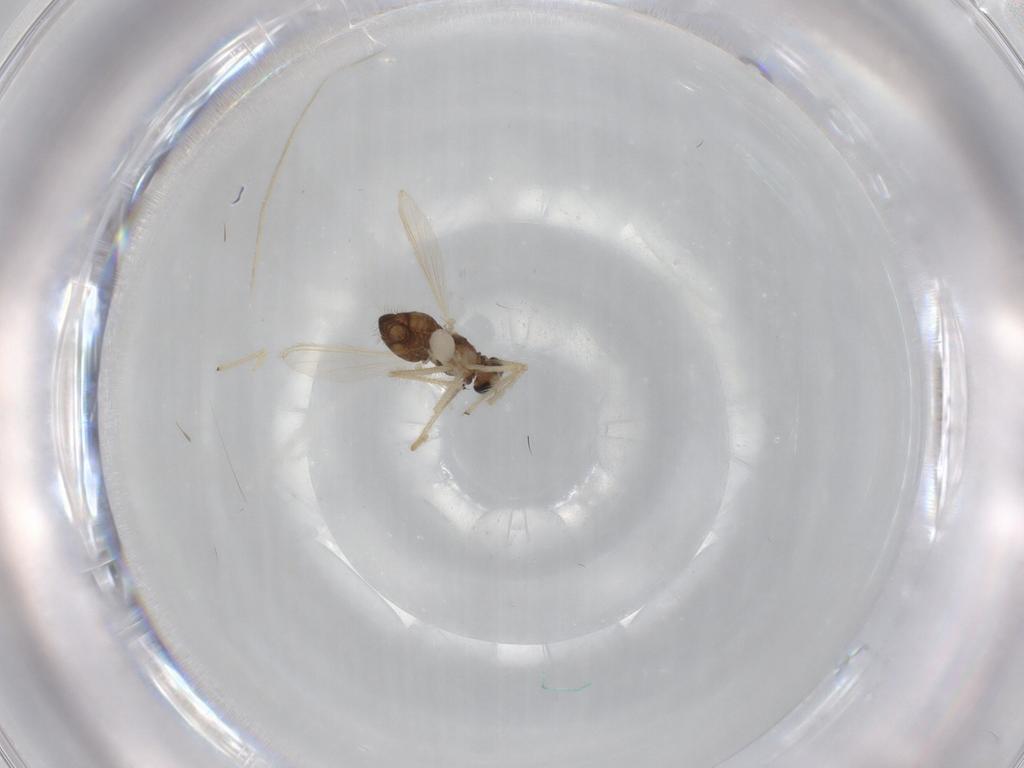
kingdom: Animalia
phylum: Arthropoda
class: Insecta
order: Diptera
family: Chironomidae
